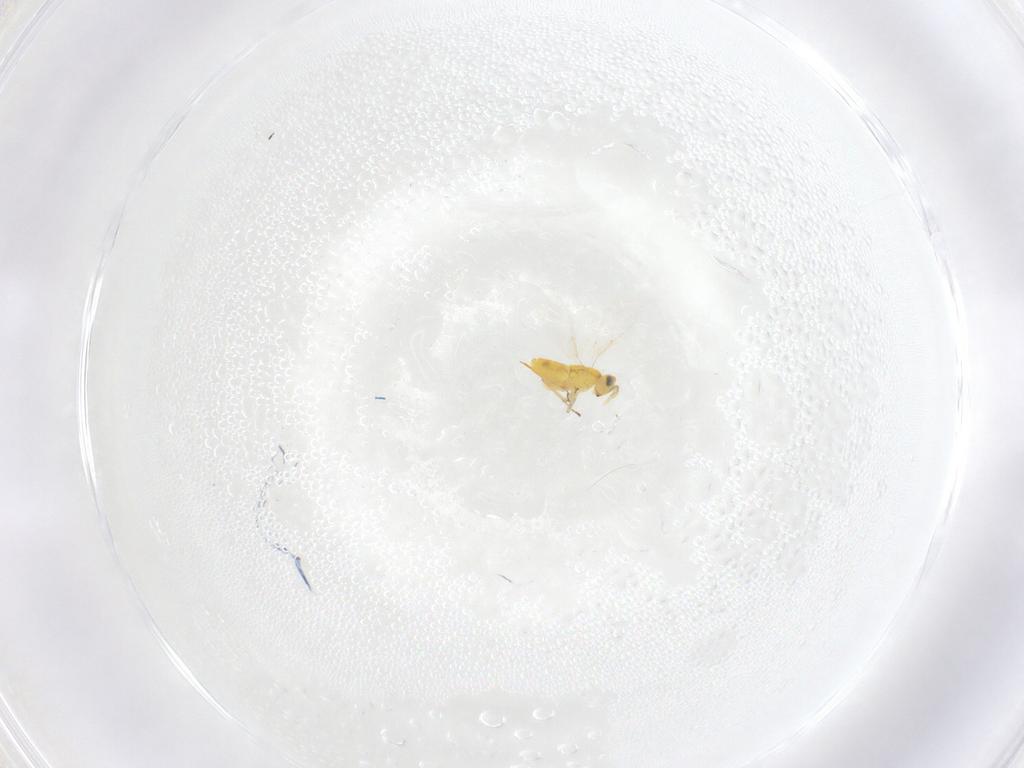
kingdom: Animalia
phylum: Arthropoda
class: Insecta
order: Hymenoptera
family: Aphelinidae
